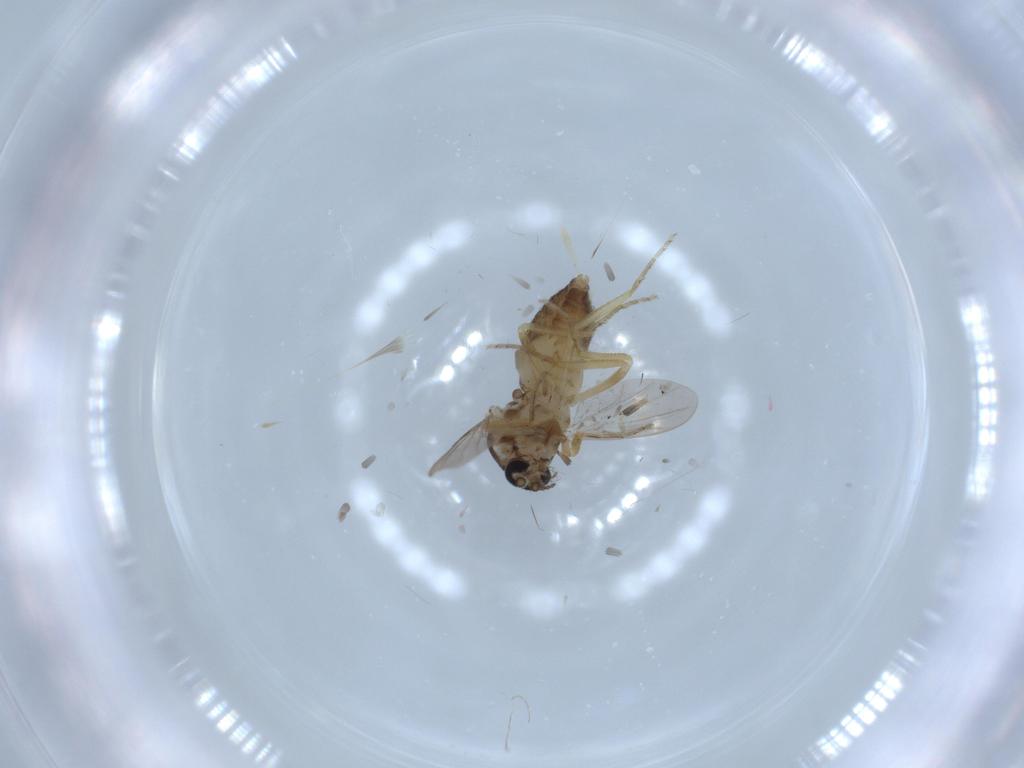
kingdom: Animalia
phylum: Arthropoda
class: Insecta
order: Diptera
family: Ceratopogonidae
